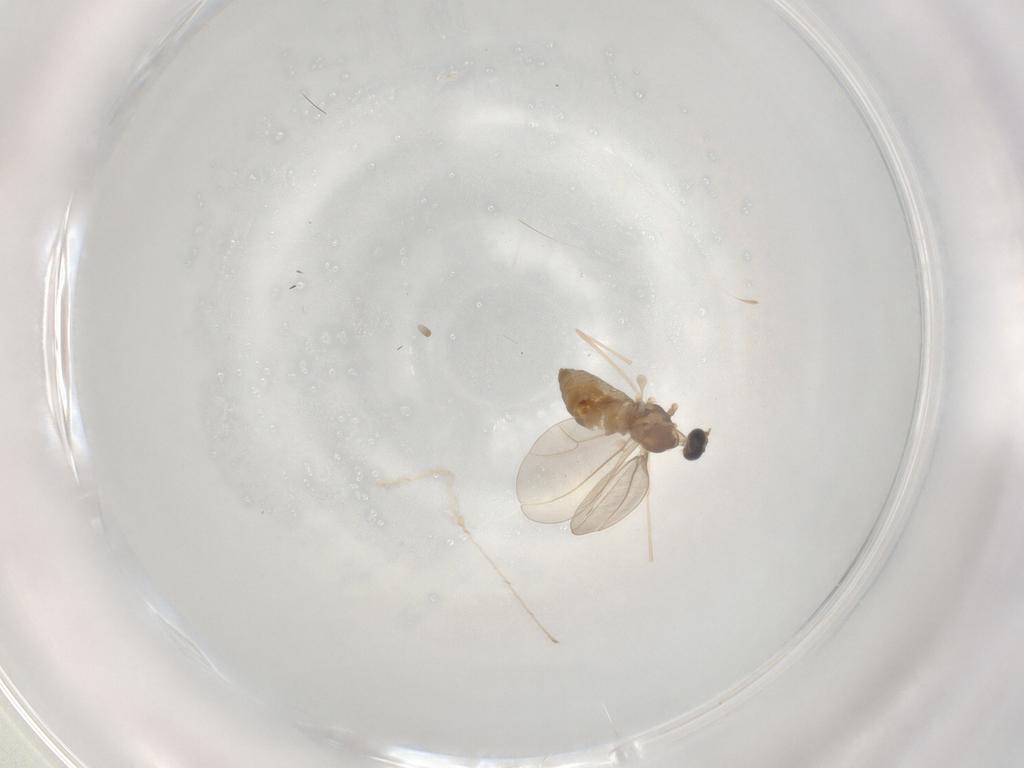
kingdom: Animalia
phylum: Arthropoda
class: Insecta
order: Diptera
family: Cecidomyiidae
